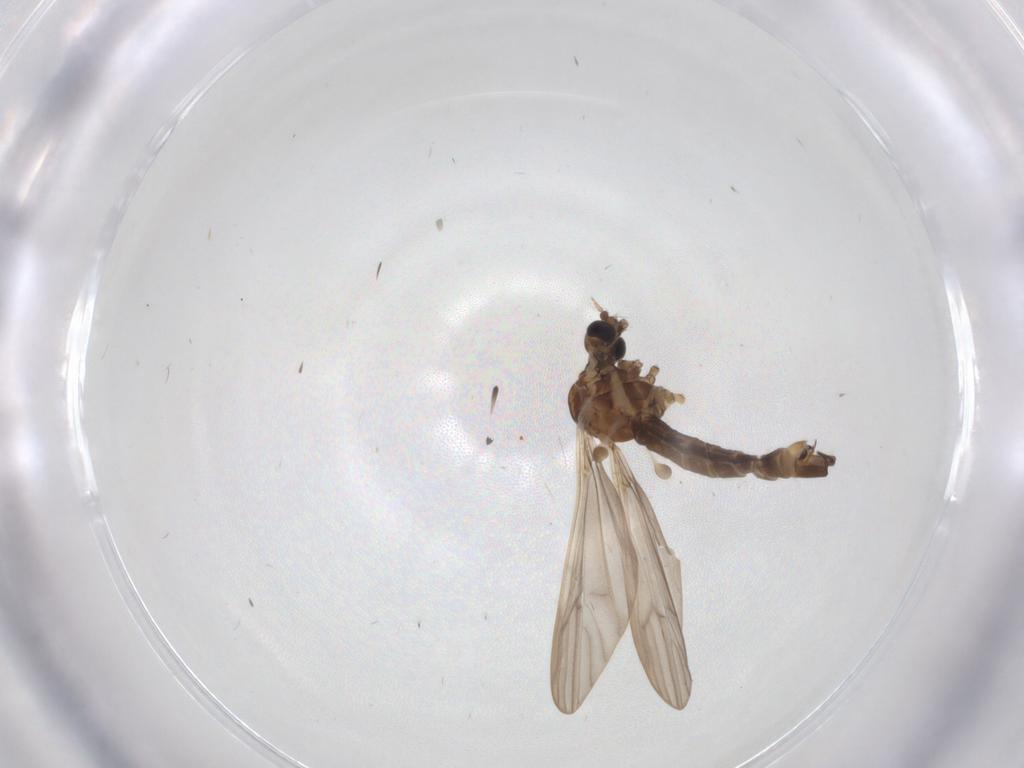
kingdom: Animalia
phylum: Arthropoda
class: Insecta
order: Diptera
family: Limoniidae
